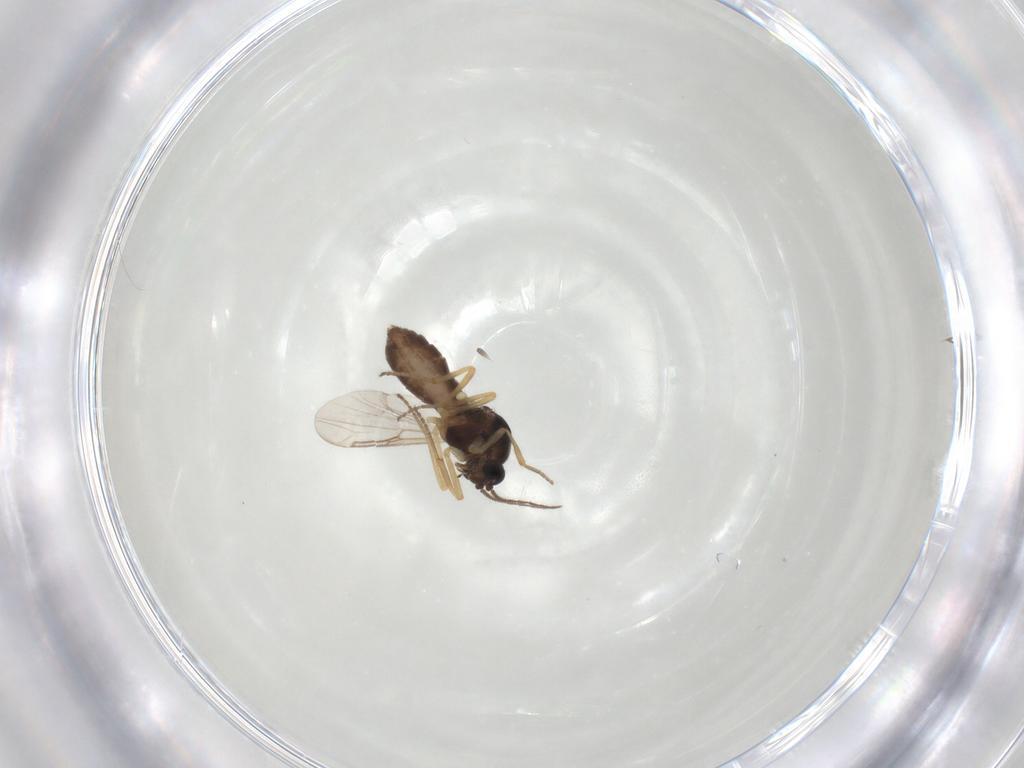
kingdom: Animalia
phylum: Arthropoda
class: Insecta
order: Diptera
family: Ceratopogonidae
